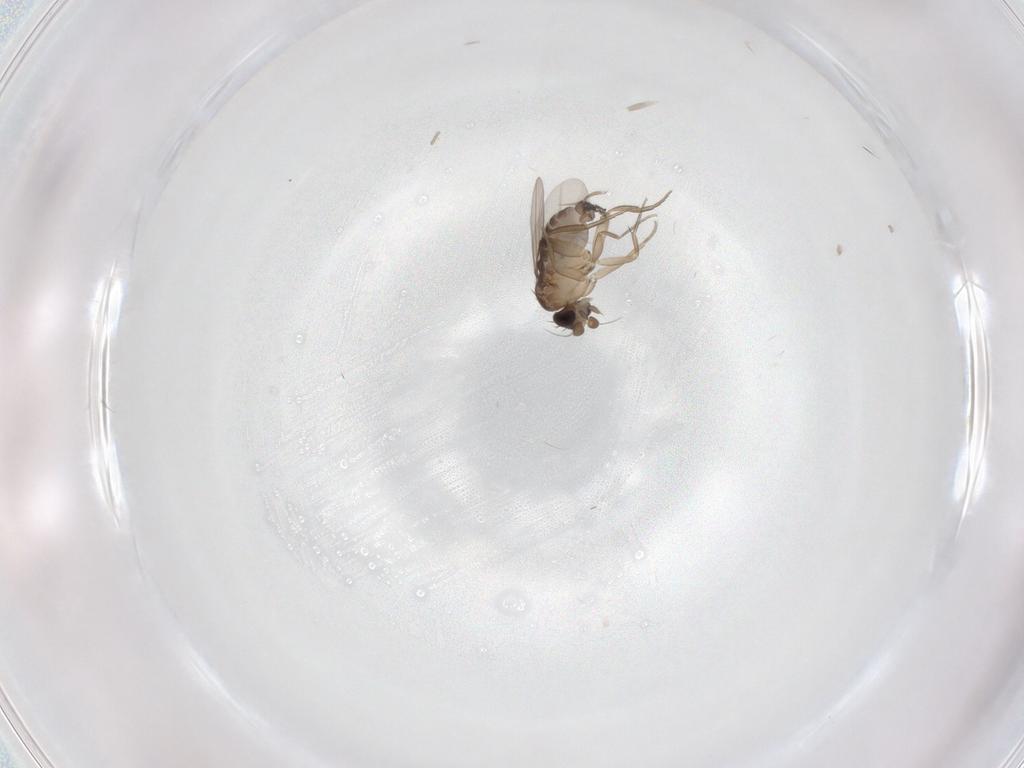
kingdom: Animalia
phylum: Arthropoda
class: Insecta
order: Diptera
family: Phoridae
